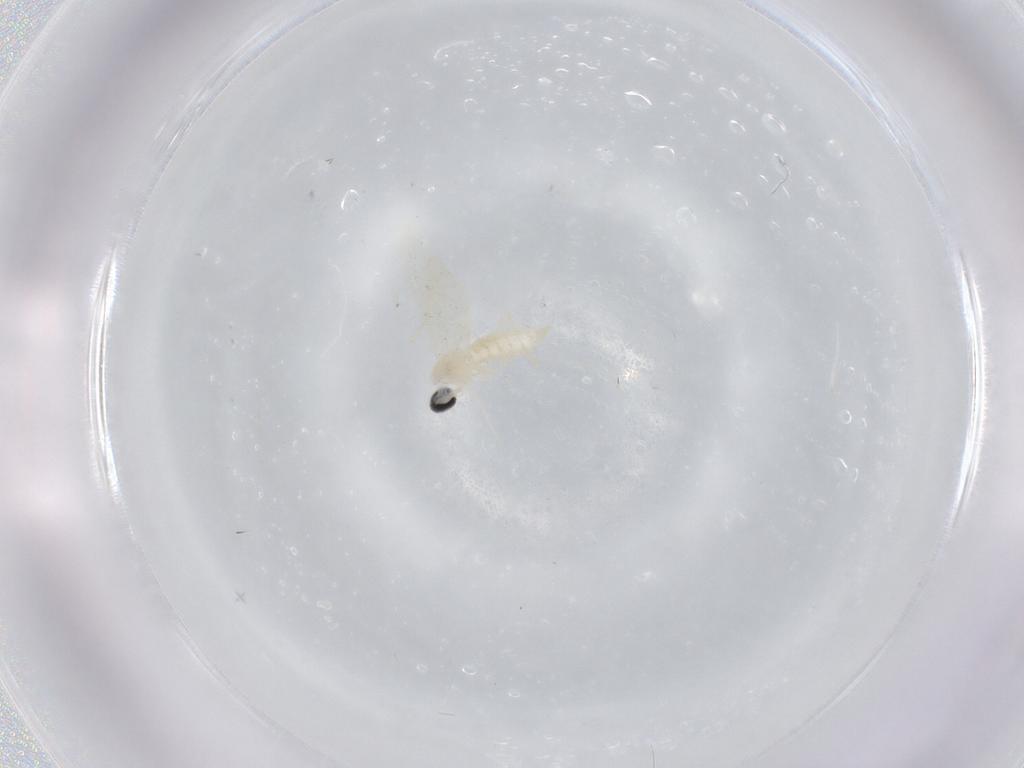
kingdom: Animalia
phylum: Arthropoda
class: Insecta
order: Diptera
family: Cecidomyiidae
